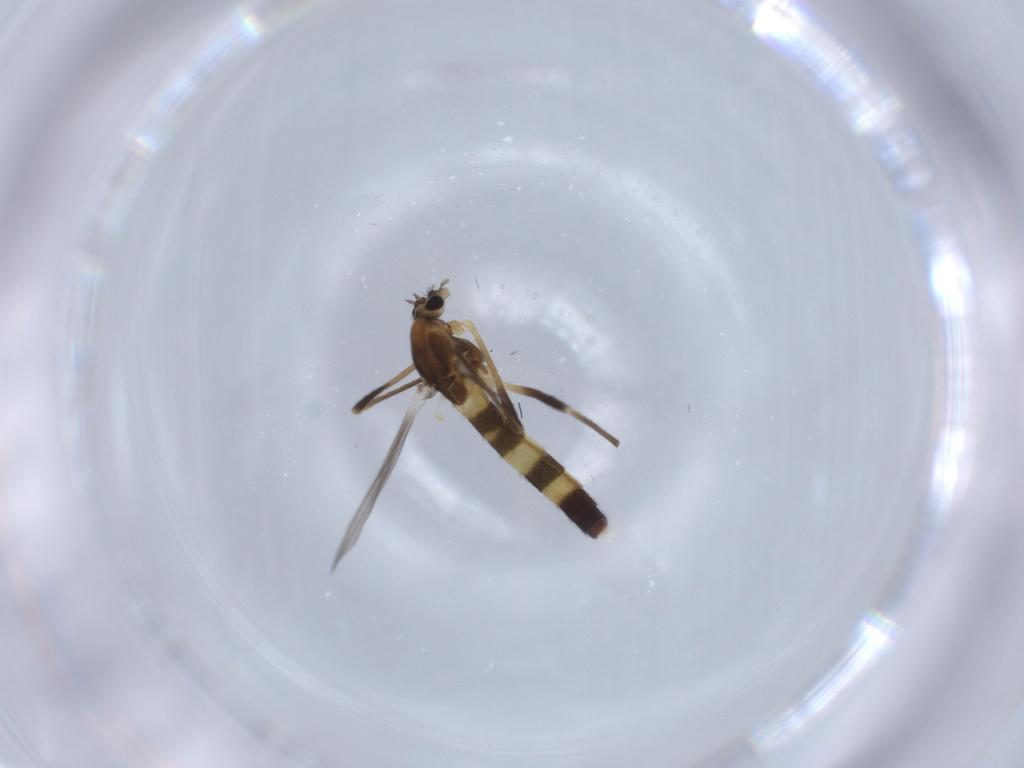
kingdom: Animalia
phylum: Arthropoda
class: Insecta
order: Diptera
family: Chironomidae
